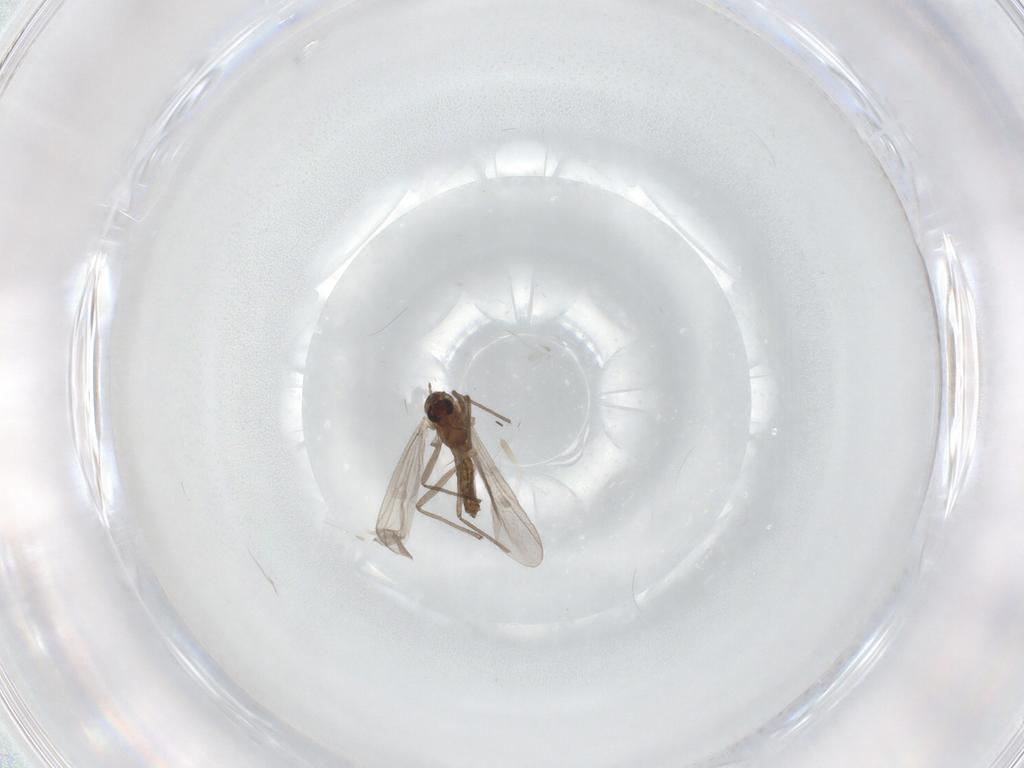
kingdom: Animalia
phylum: Arthropoda
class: Insecta
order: Diptera
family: Chironomidae
